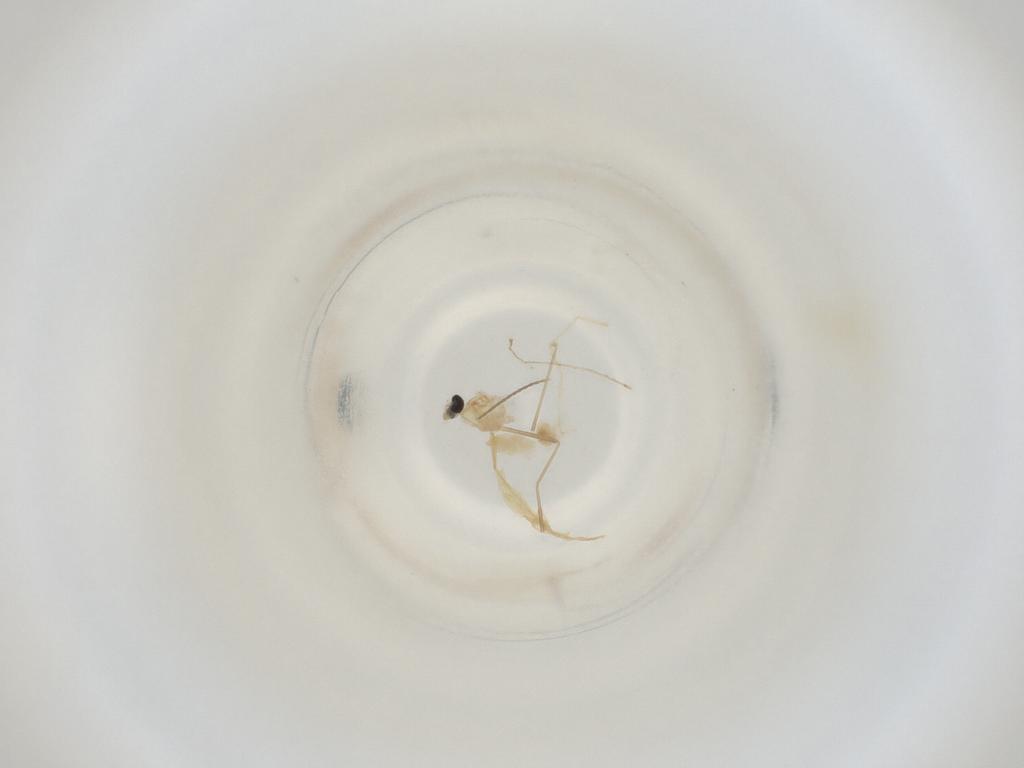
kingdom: Animalia
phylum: Arthropoda
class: Insecta
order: Diptera
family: Cecidomyiidae
